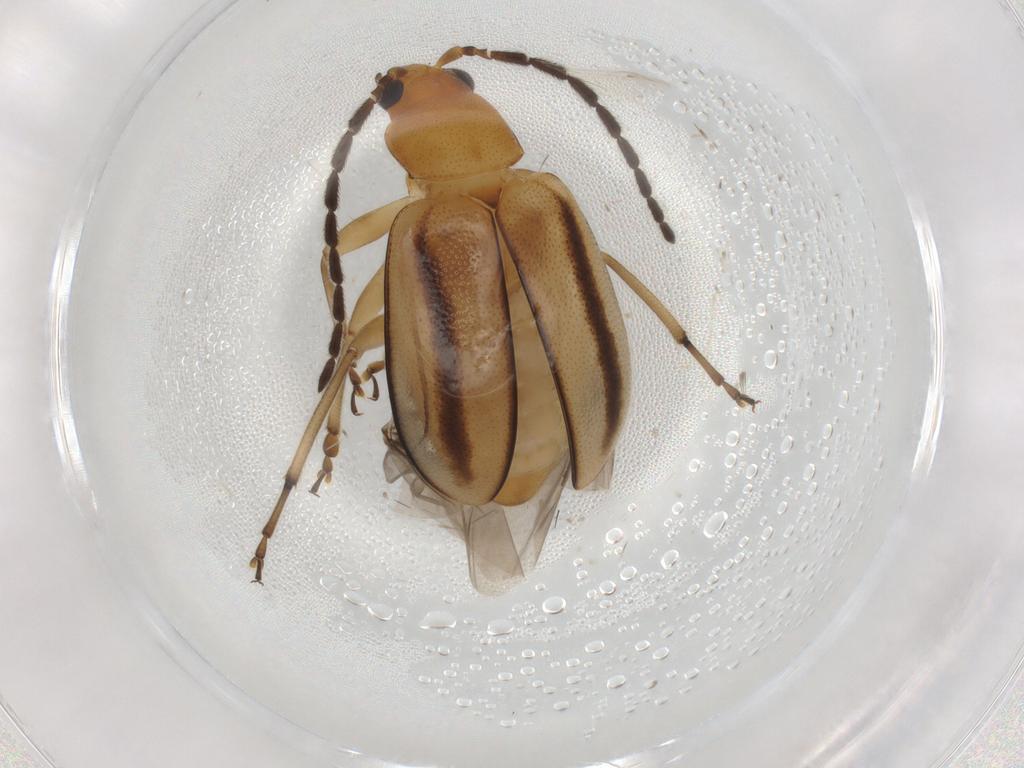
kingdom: Animalia
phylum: Arthropoda
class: Insecta
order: Coleoptera
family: Chrysomelidae
